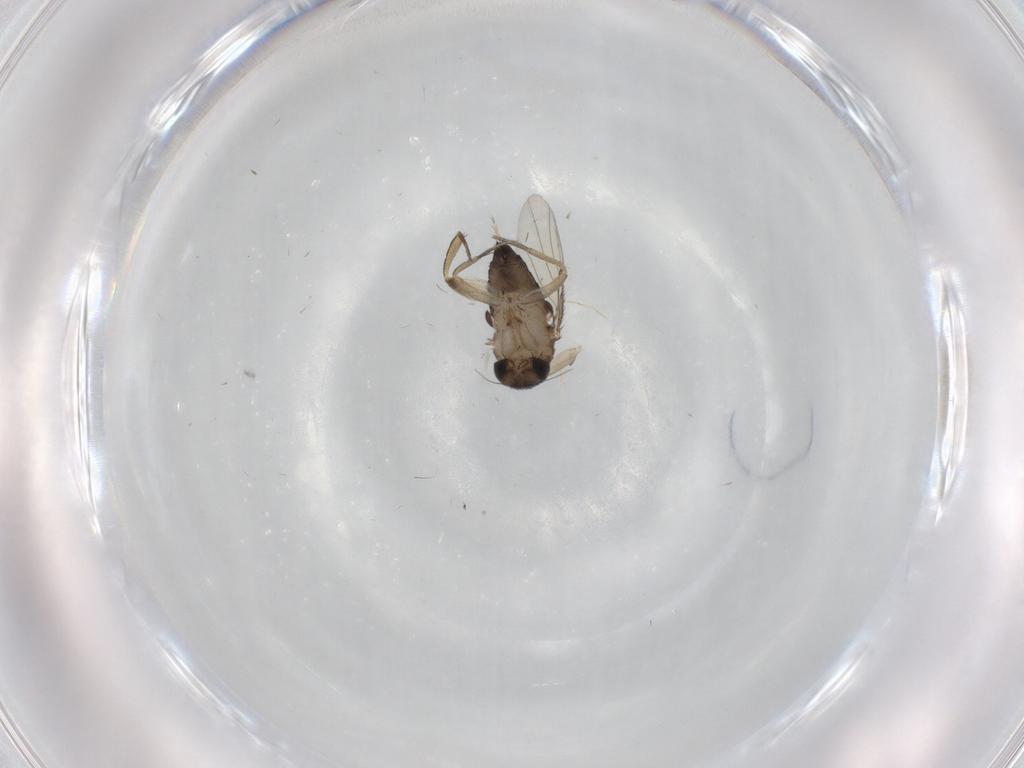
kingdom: Animalia
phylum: Arthropoda
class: Insecta
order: Diptera
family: Phoridae
